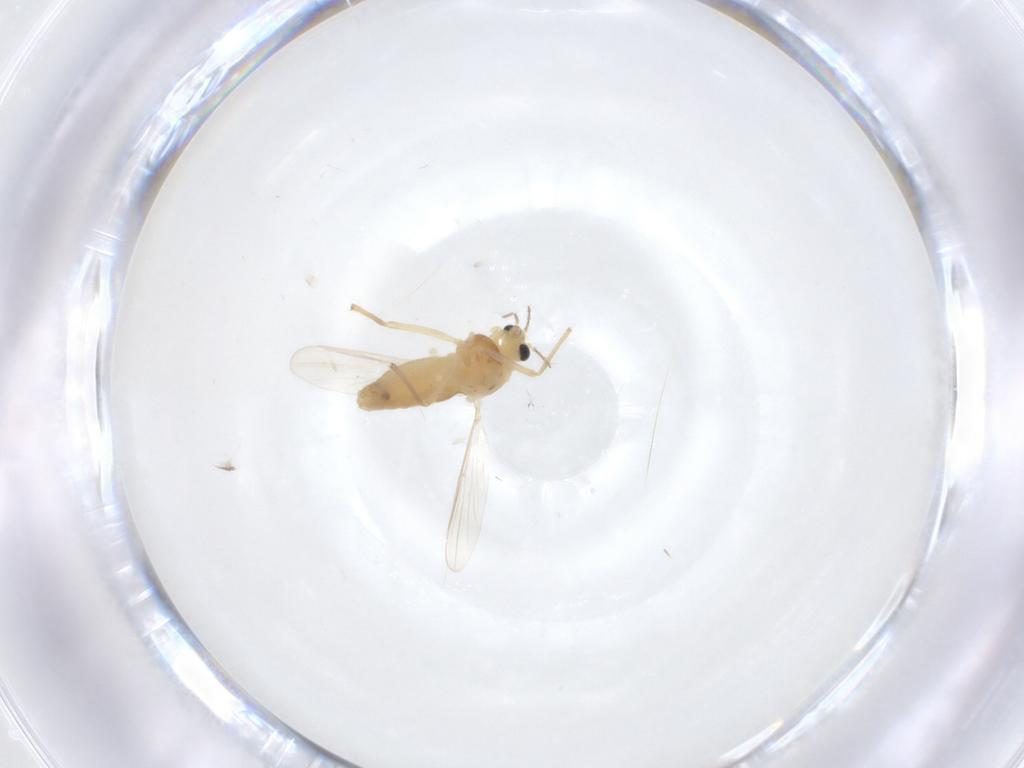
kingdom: Animalia
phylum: Arthropoda
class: Insecta
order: Diptera
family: Chironomidae
